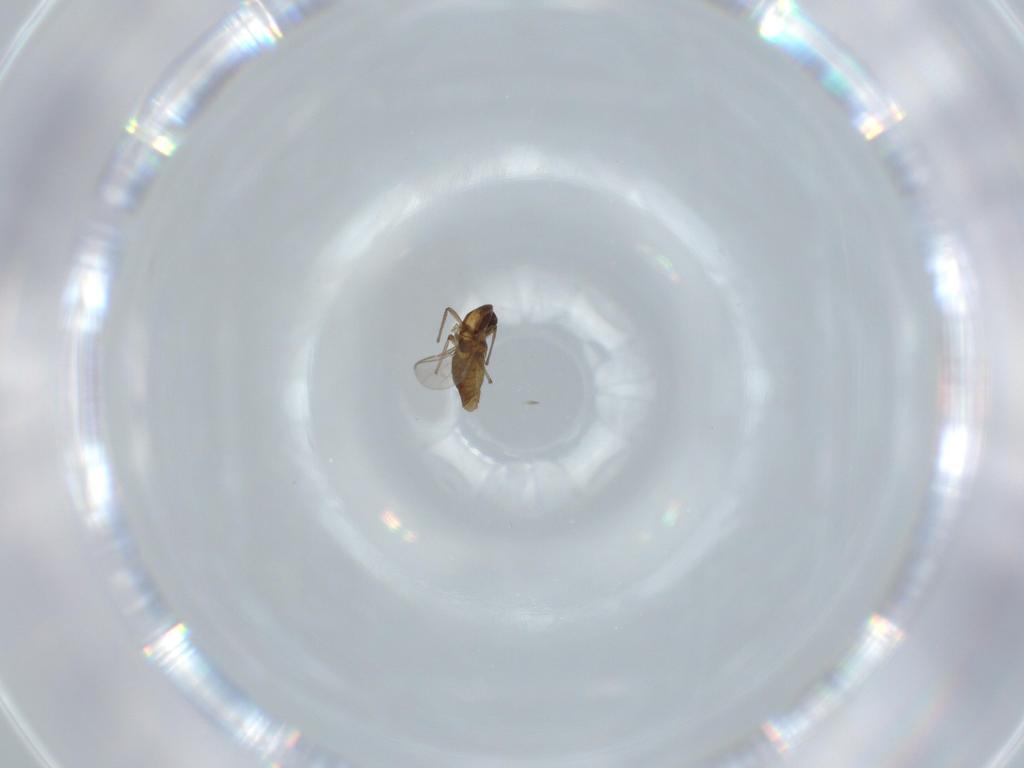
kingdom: Animalia
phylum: Arthropoda
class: Insecta
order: Diptera
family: Chironomidae
